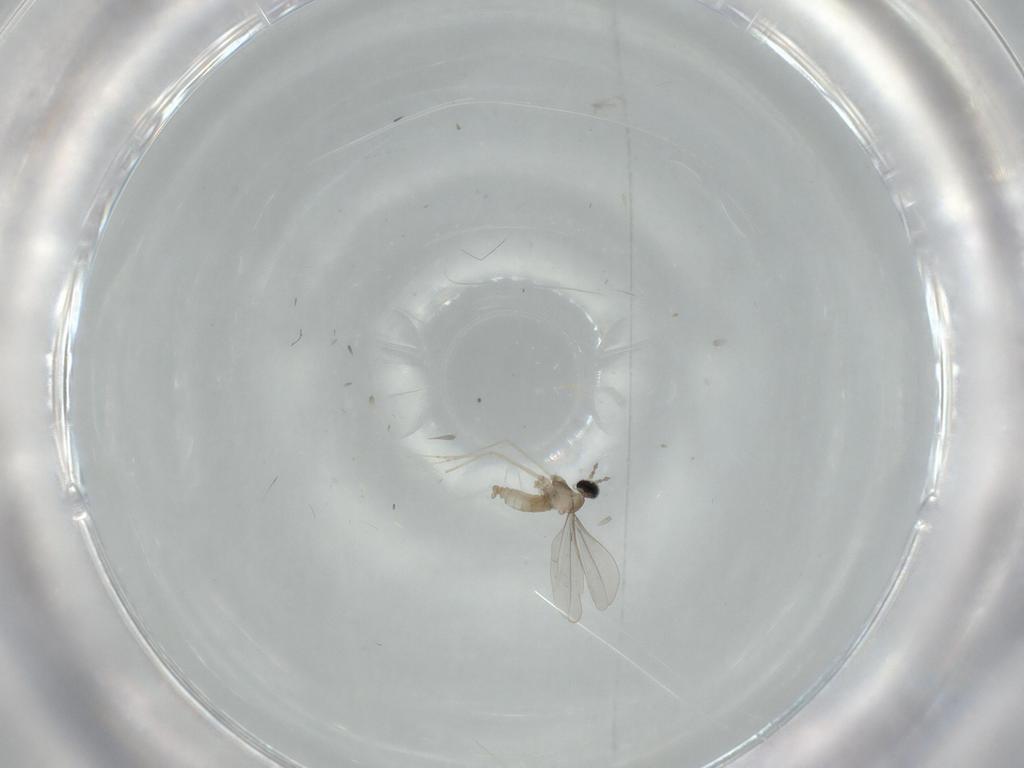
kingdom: Animalia
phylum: Arthropoda
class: Insecta
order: Diptera
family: Cecidomyiidae
